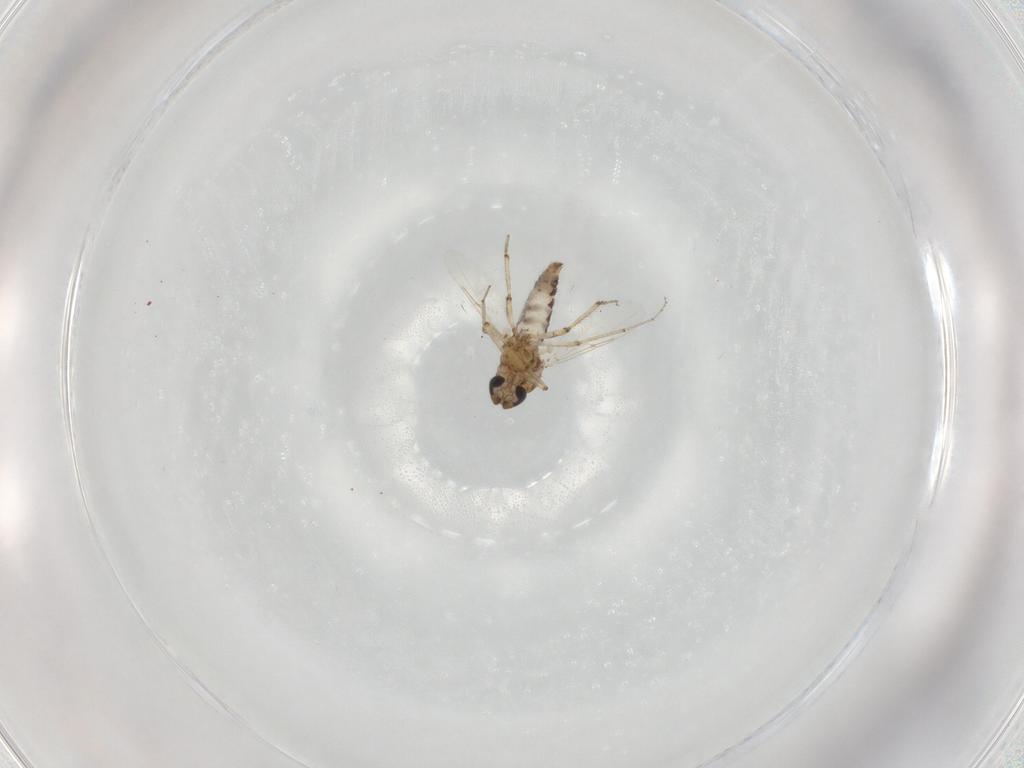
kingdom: Animalia
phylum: Arthropoda
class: Insecta
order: Diptera
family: Ceratopogonidae
